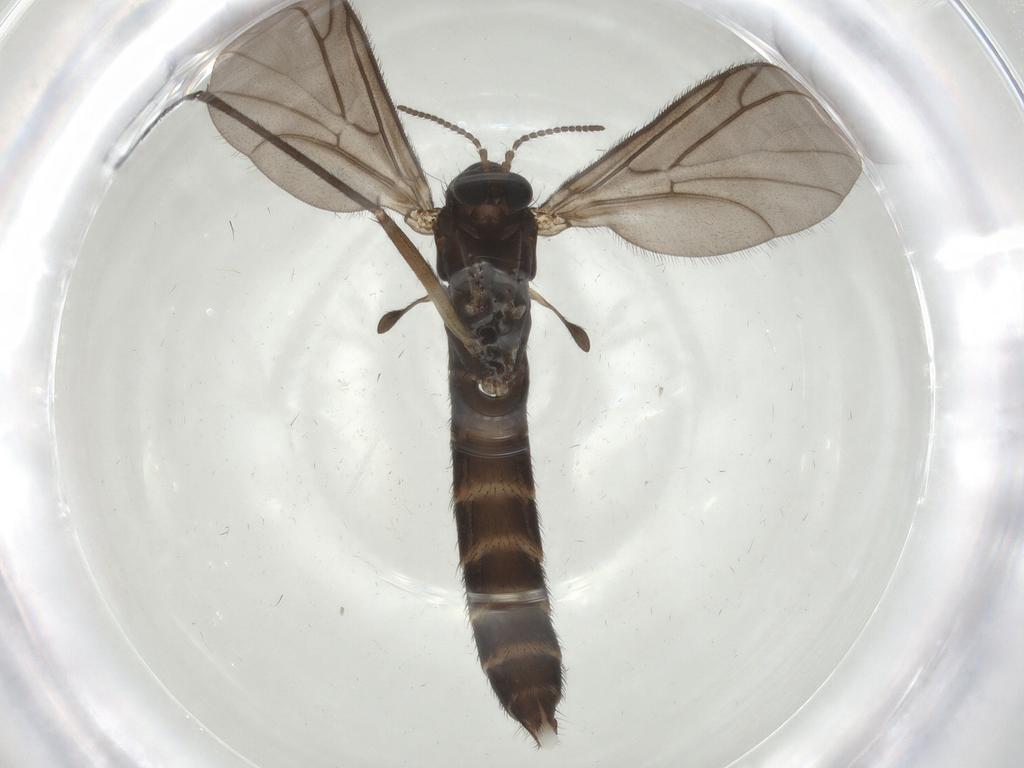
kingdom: Animalia
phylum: Arthropoda
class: Insecta
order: Diptera
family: Ditomyiidae
